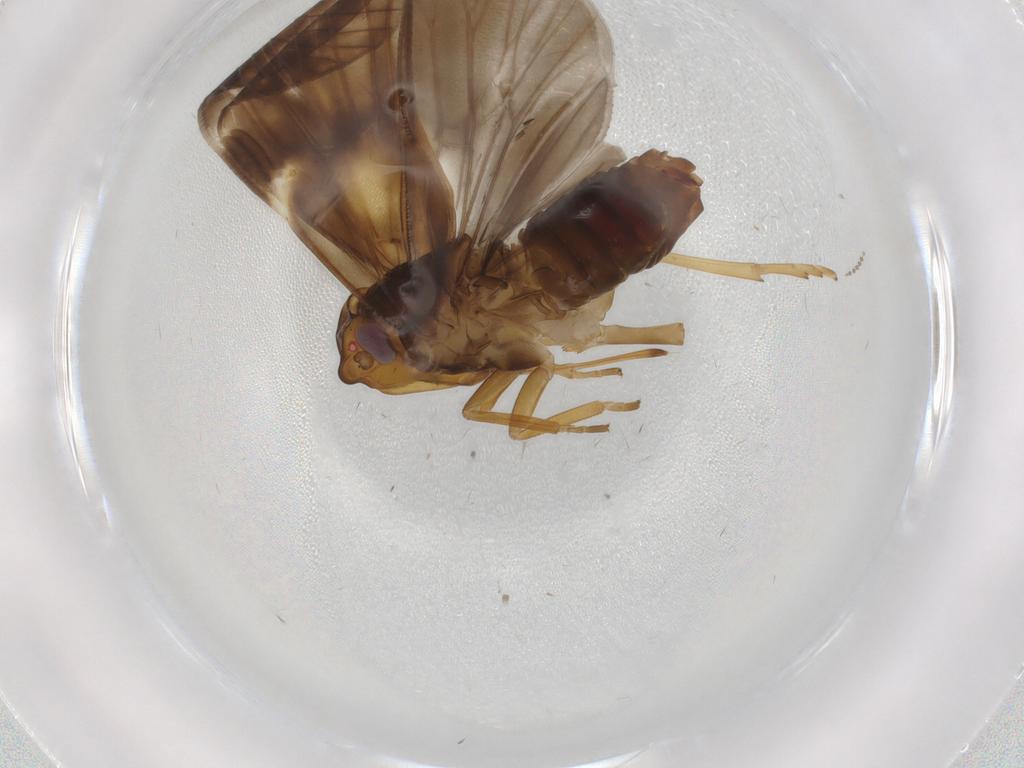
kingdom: Animalia
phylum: Arthropoda
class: Insecta
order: Hemiptera
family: Cixiidae
